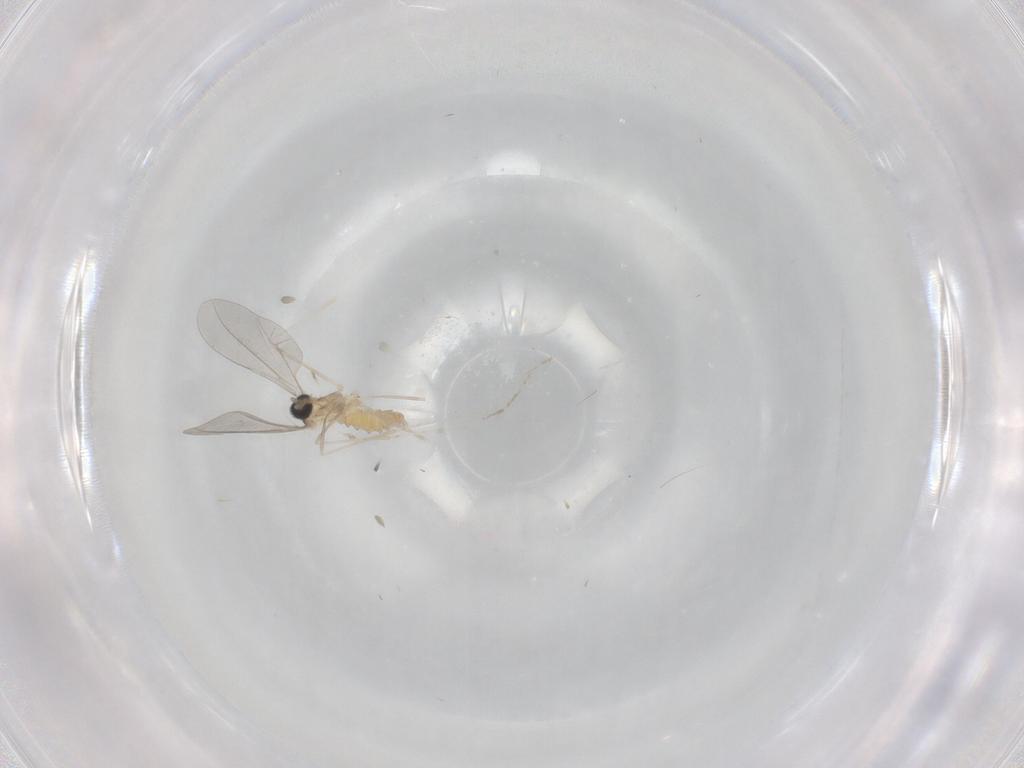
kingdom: Animalia
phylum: Arthropoda
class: Insecta
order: Diptera
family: Cecidomyiidae
